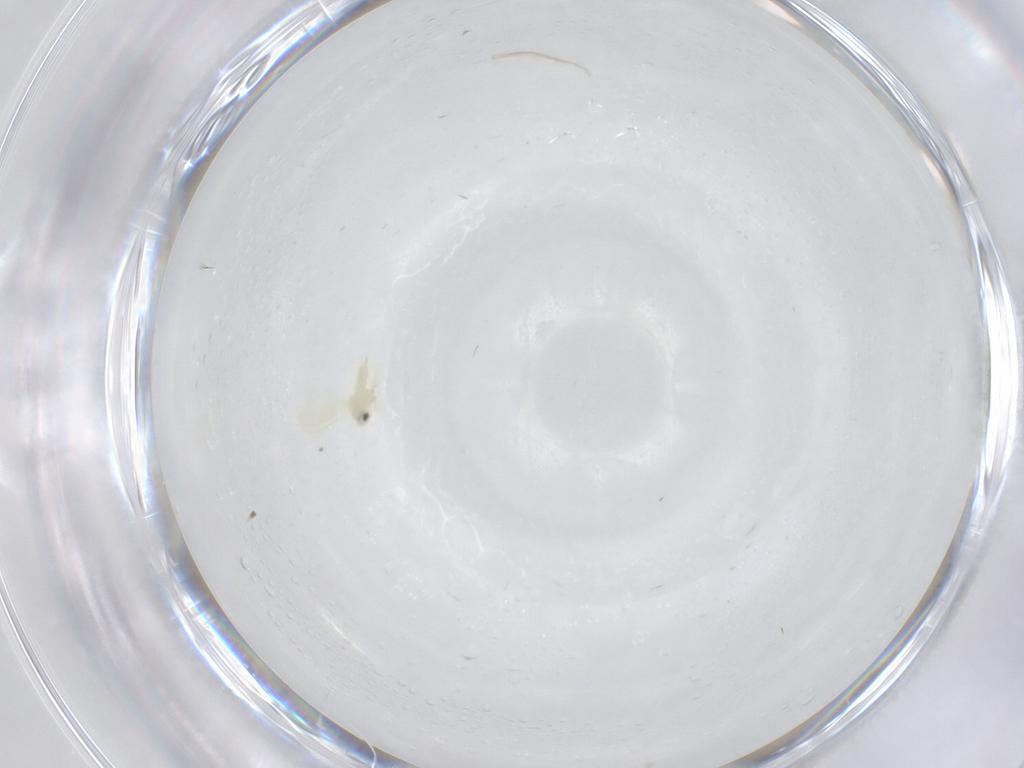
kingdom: Animalia
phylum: Arthropoda
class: Insecta
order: Hemiptera
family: Aleyrodidae
